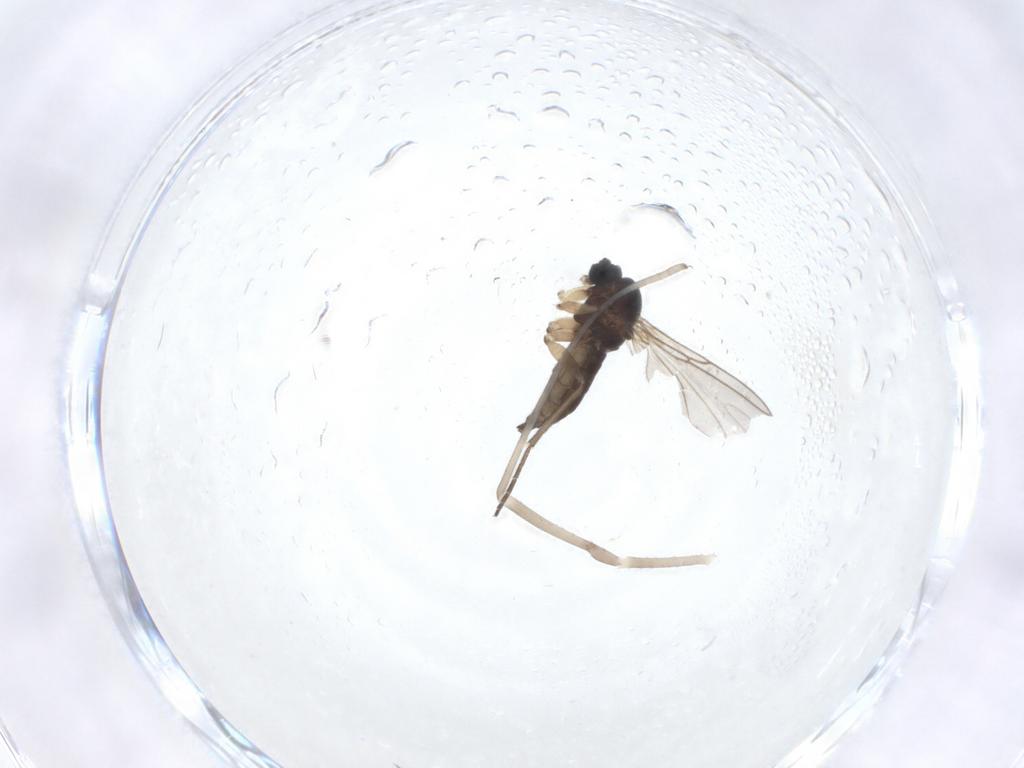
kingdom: Animalia
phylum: Arthropoda
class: Insecta
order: Diptera
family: Sciaridae
